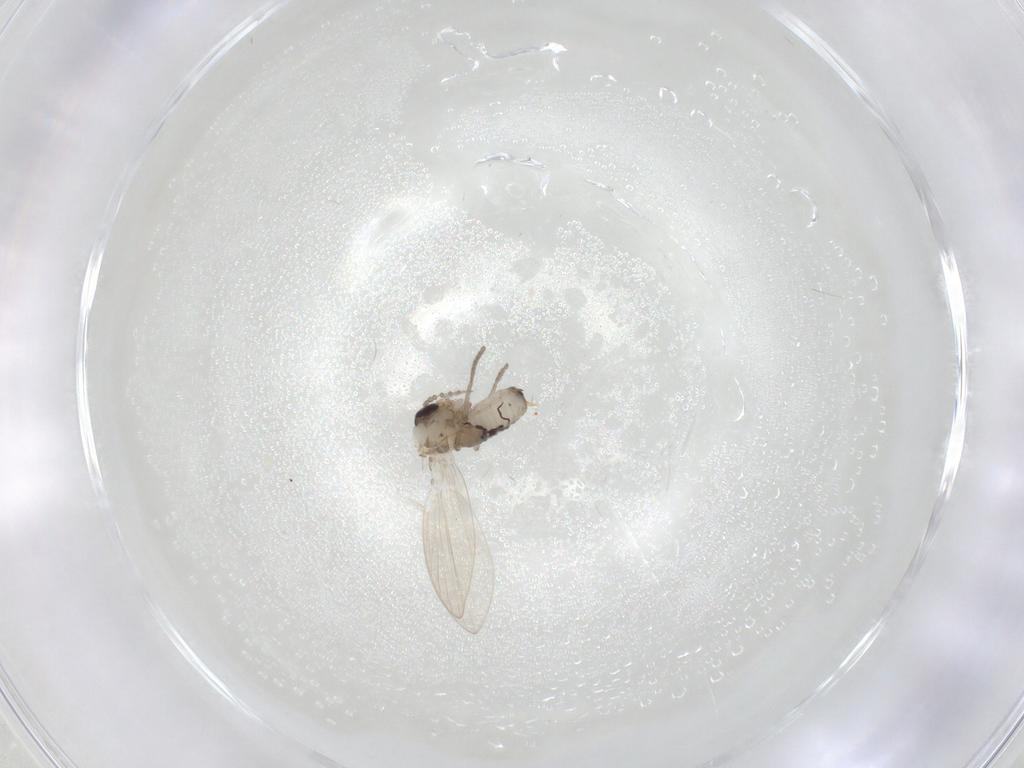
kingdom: Animalia
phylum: Arthropoda
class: Insecta
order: Diptera
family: Psychodidae
